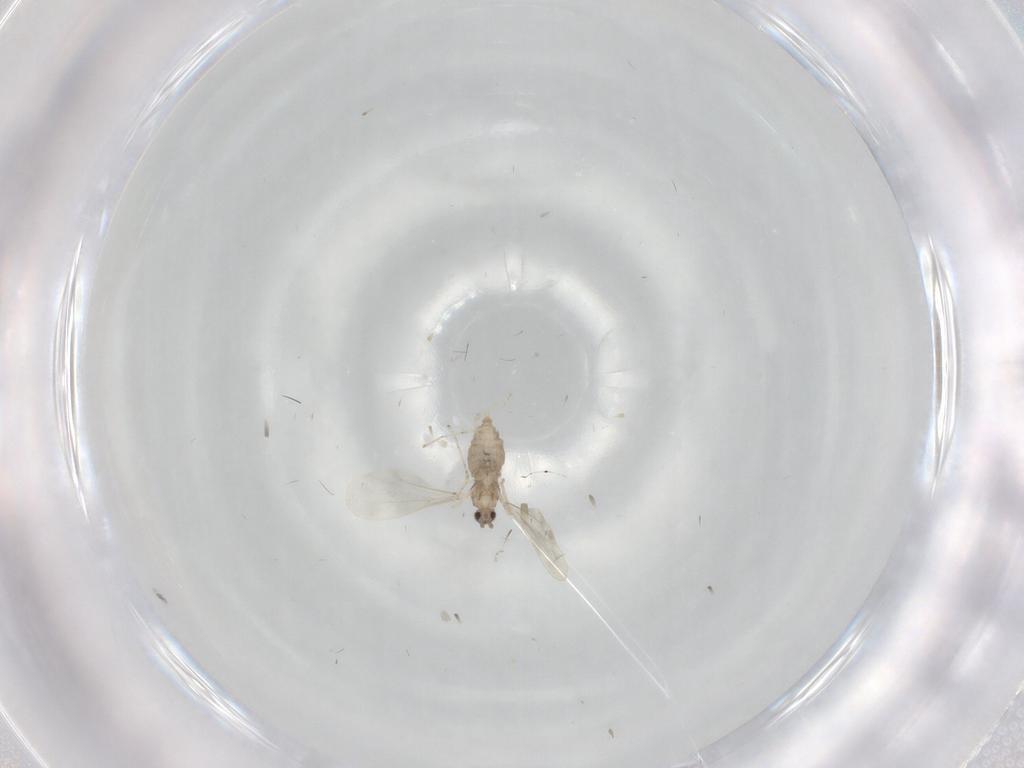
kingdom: Animalia
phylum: Arthropoda
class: Insecta
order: Diptera
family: Cecidomyiidae
